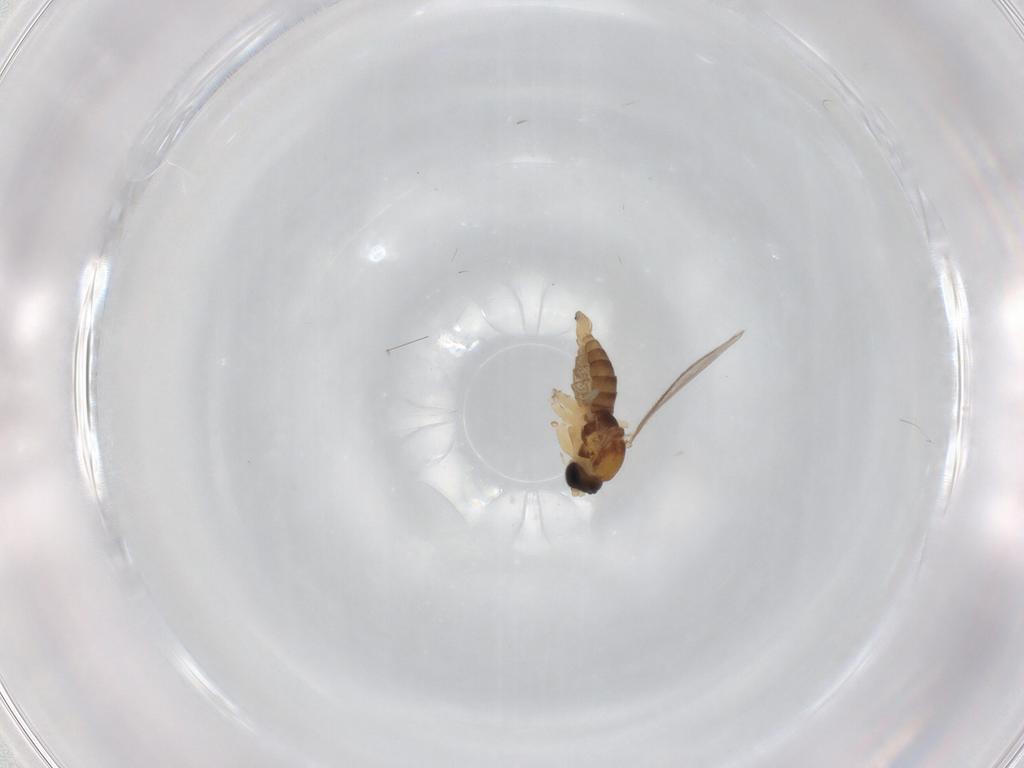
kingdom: Animalia
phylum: Arthropoda
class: Insecta
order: Diptera
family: Sciaridae
